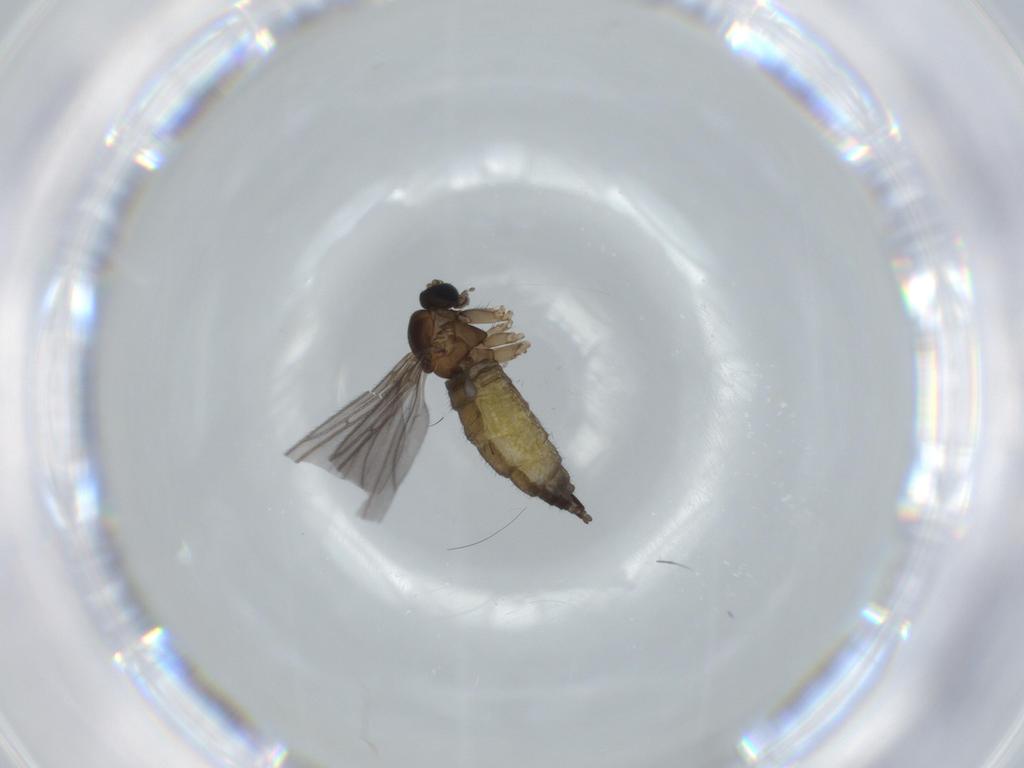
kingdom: Animalia
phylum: Arthropoda
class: Insecta
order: Diptera
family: Sciaridae
